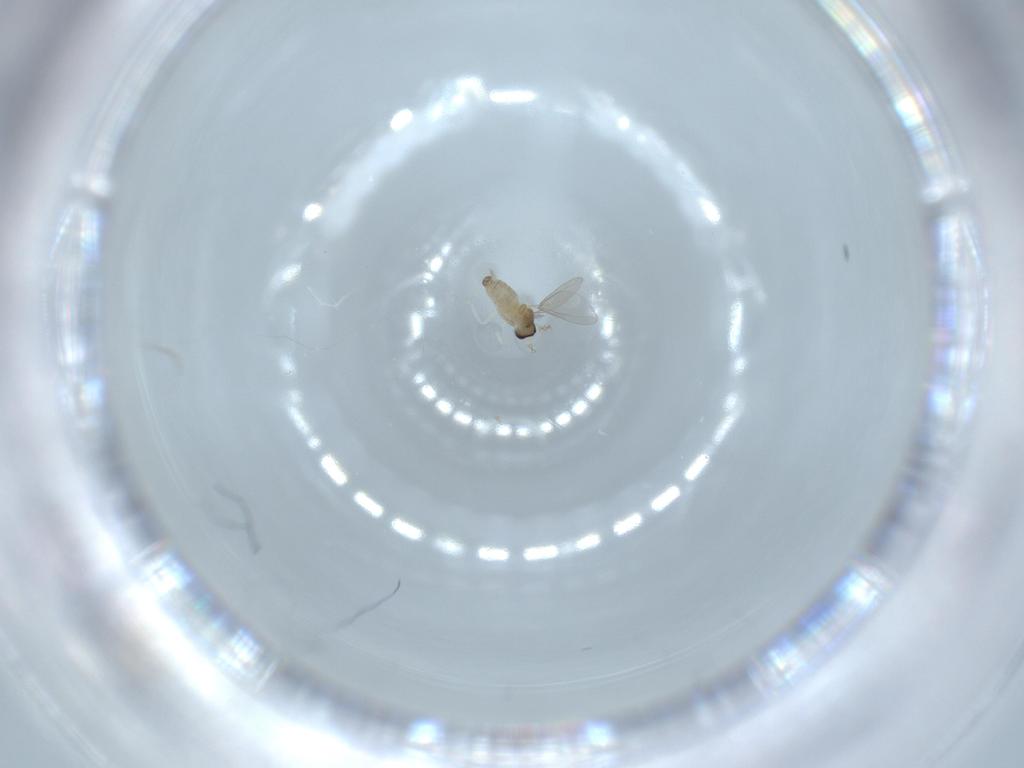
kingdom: Animalia
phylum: Arthropoda
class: Insecta
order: Diptera
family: Cecidomyiidae
